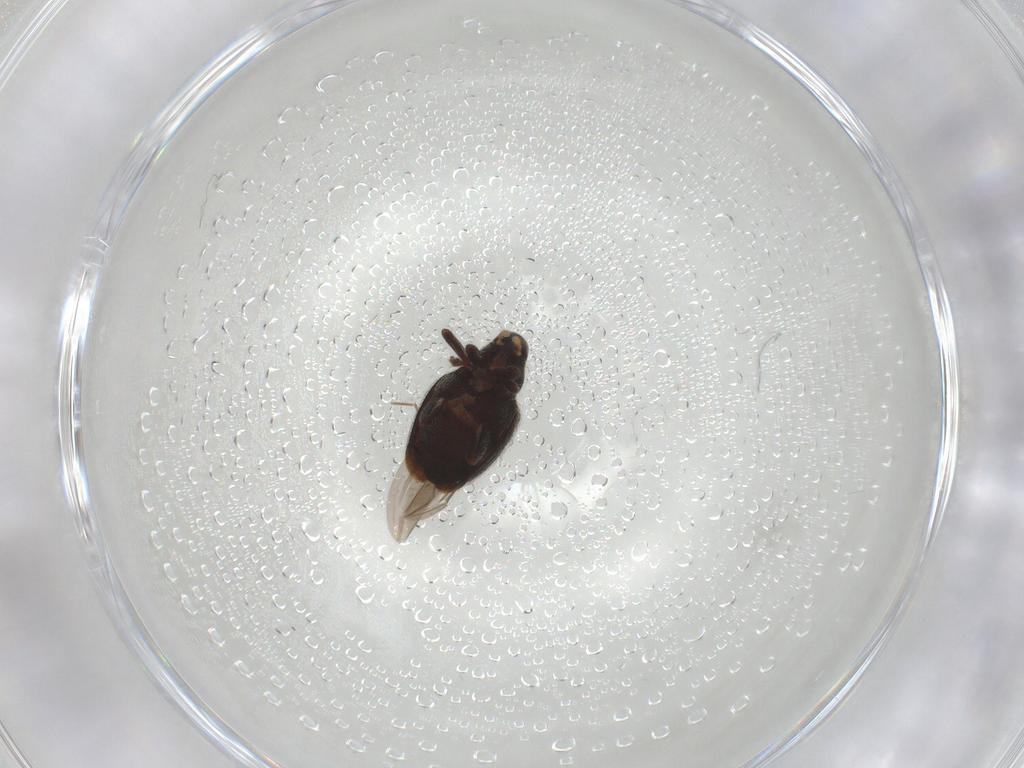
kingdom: Animalia
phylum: Arthropoda
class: Insecta
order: Coleoptera
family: Curculionidae
